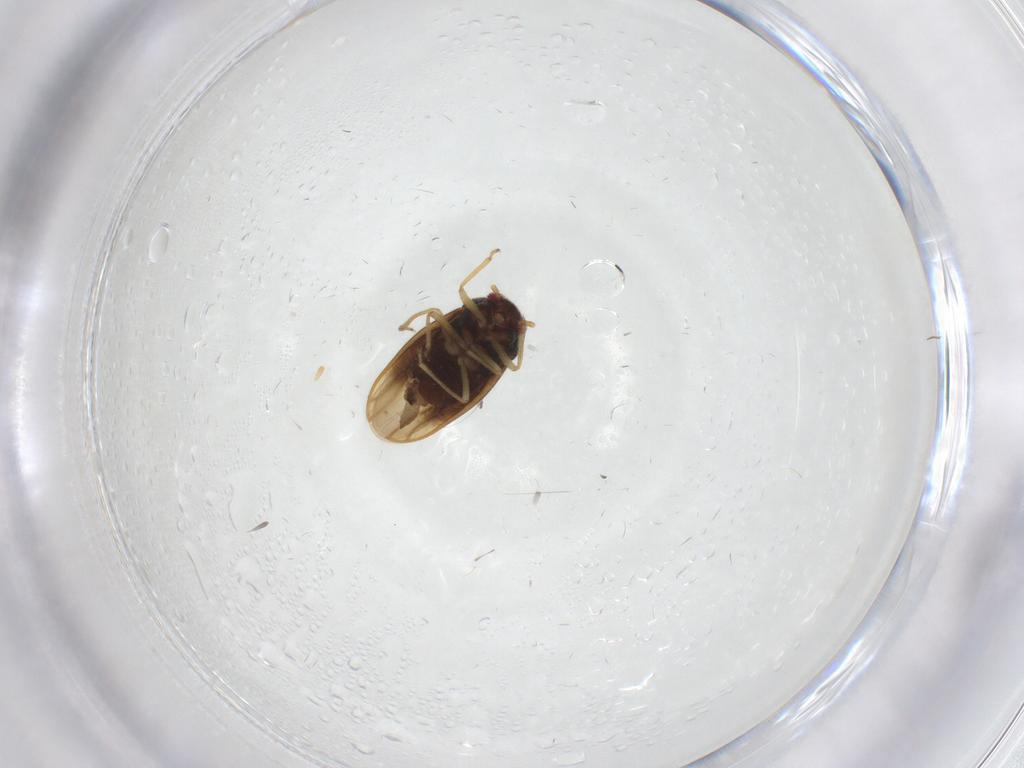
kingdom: Animalia
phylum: Arthropoda
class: Insecta
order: Hemiptera
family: Schizopteridae
